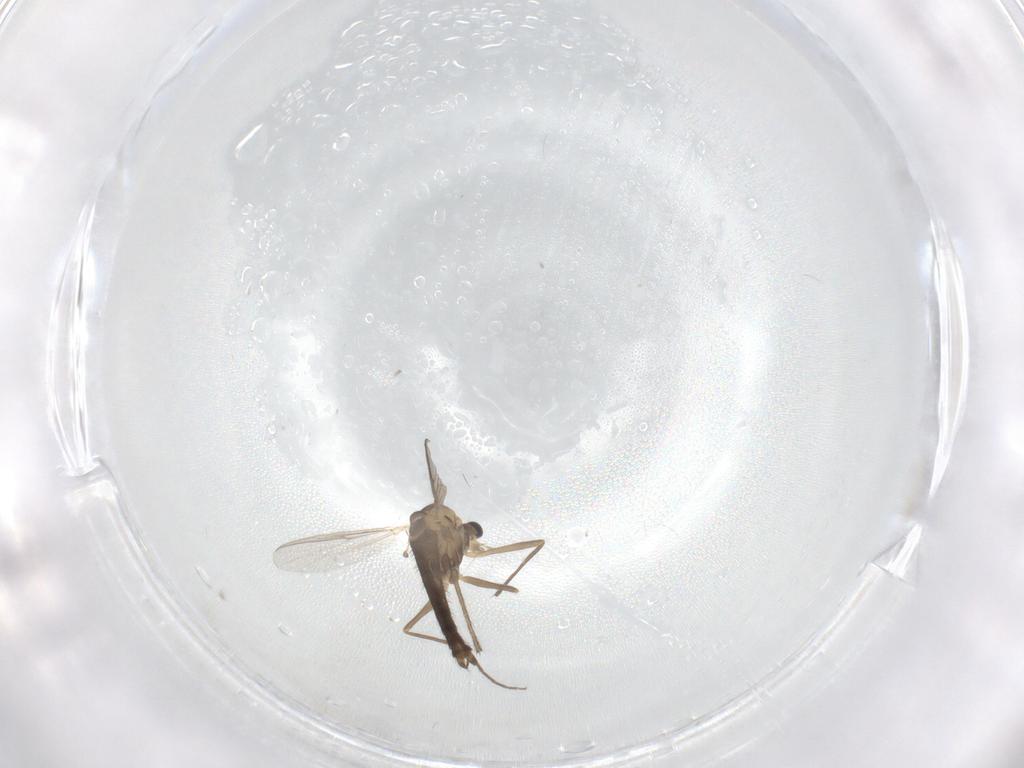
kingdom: Animalia
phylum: Arthropoda
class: Insecta
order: Diptera
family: Chironomidae
